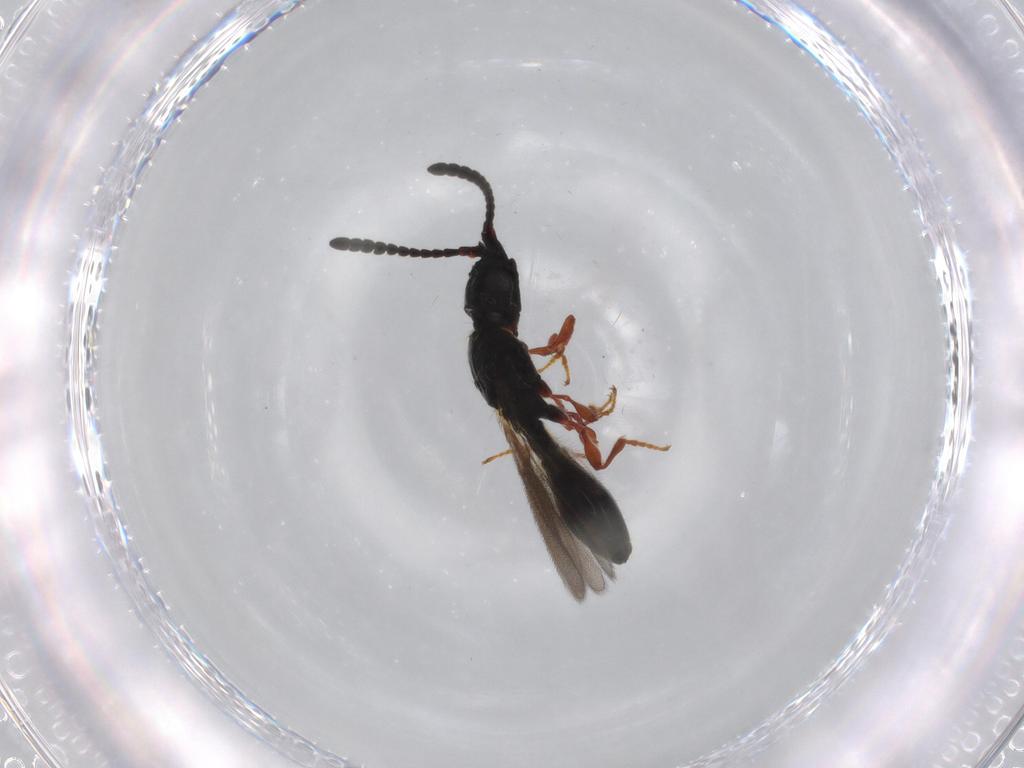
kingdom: Animalia
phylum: Arthropoda
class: Insecta
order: Hymenoptera
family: Diapriidae
